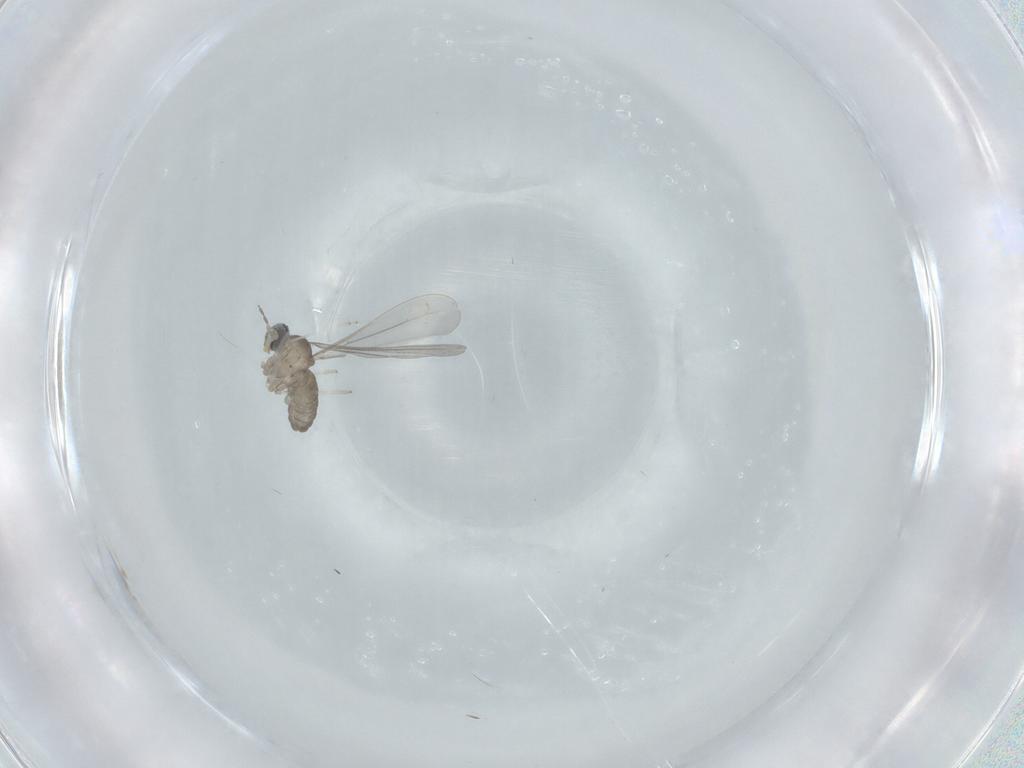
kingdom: Animalia
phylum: Arthropoda
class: Insecta
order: Diptera
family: Cecidomyiidae
